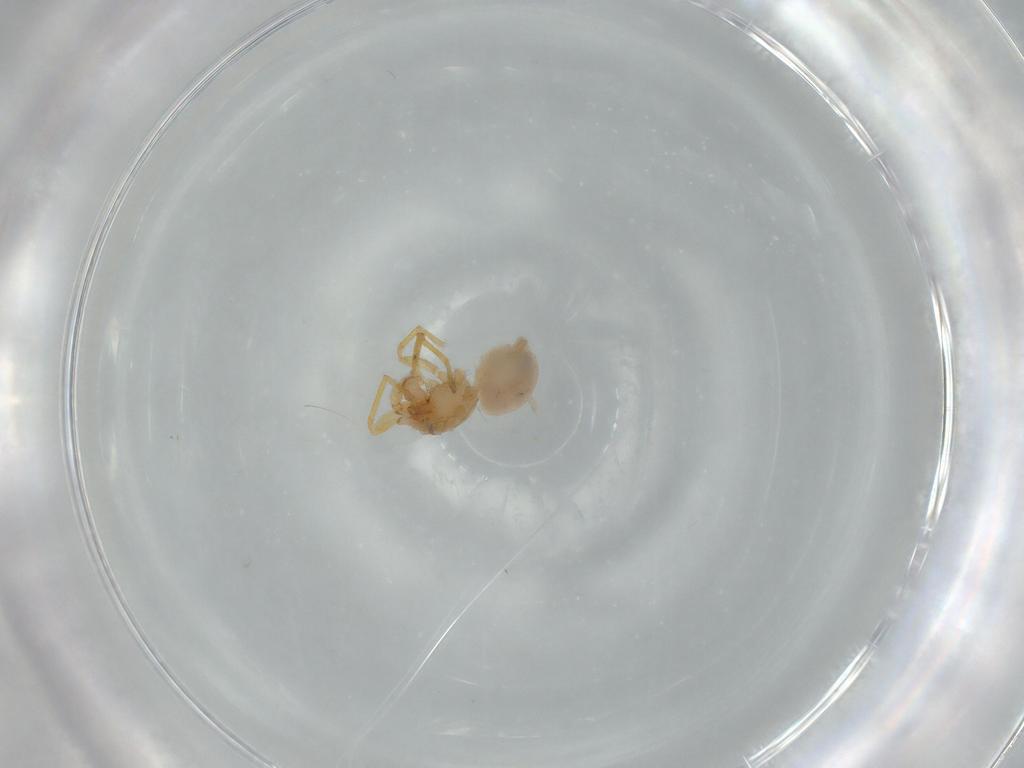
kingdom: Animalia
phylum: Arthropoda
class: Arachnida
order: Araneae
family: Oonopidae
